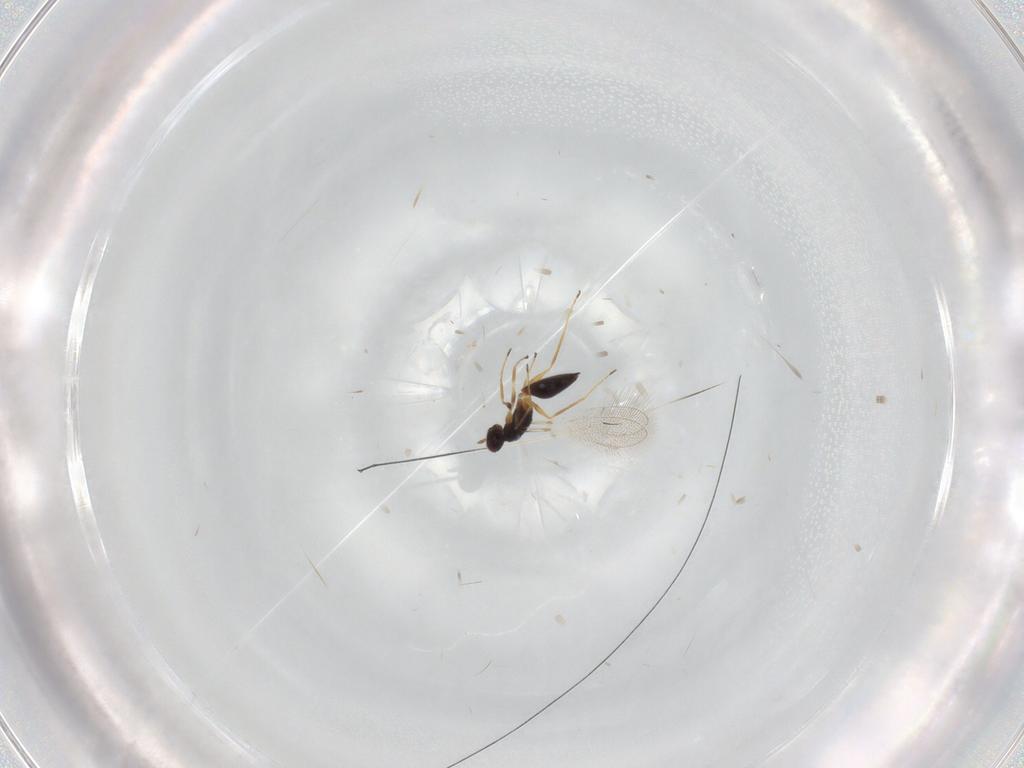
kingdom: Animalia
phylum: Arthropoda
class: Insecta
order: Hymenoptera
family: Mymaridae
